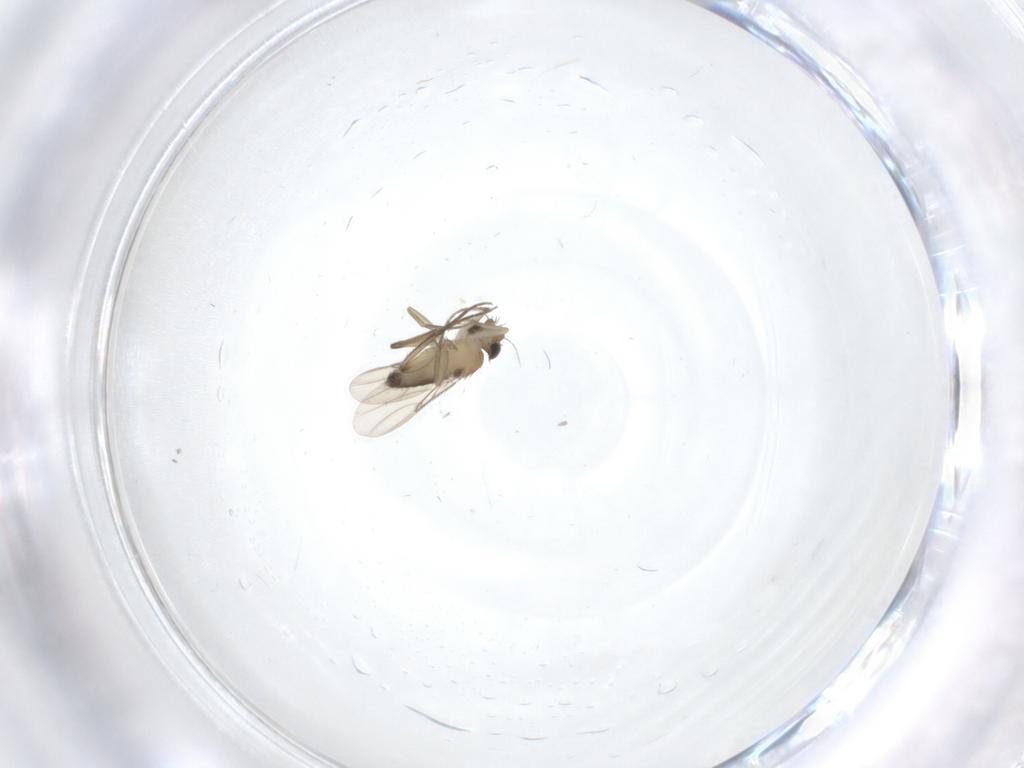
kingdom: Animalia
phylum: Arthropoda
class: Insecta
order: Diptera
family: Phoridae
